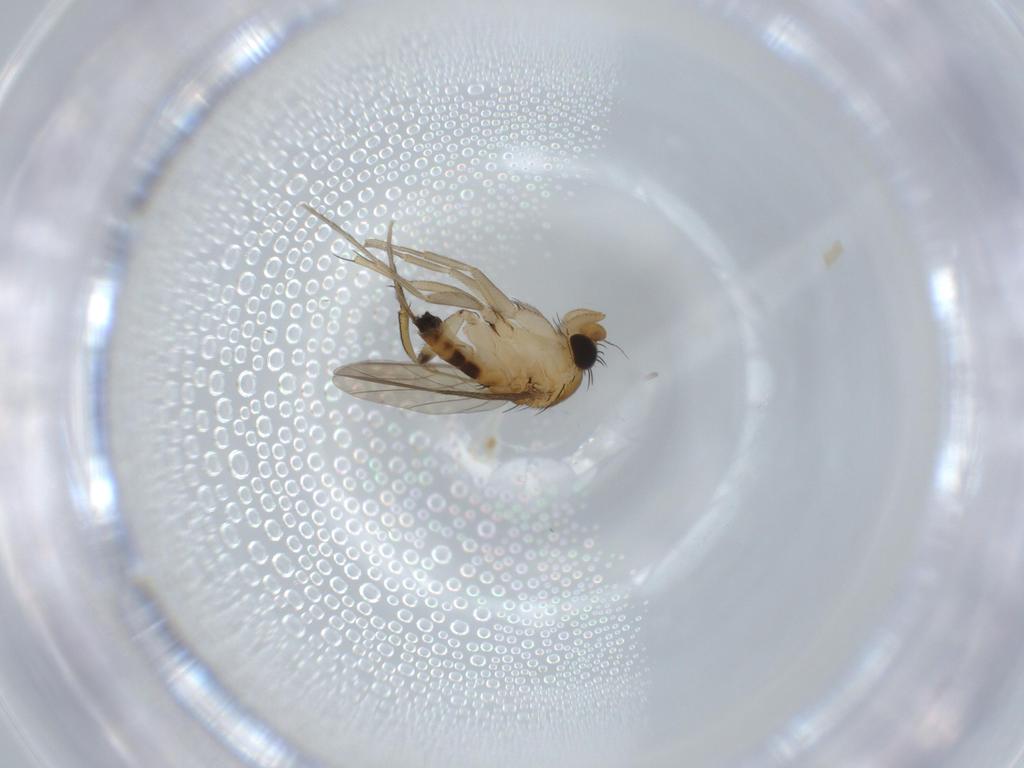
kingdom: Animalia
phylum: Arthropoda
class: Insecta
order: Diptera
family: Phoridae
